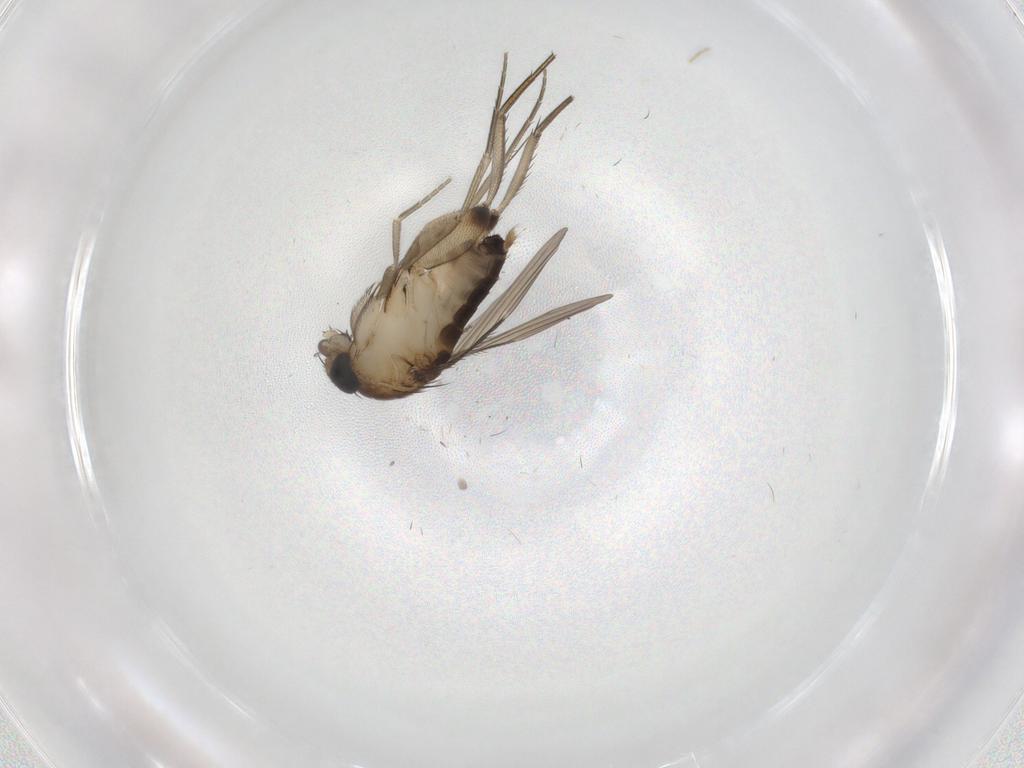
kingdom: Animalia
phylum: Arthropoda
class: Insecta
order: Diptera
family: Phoridae
